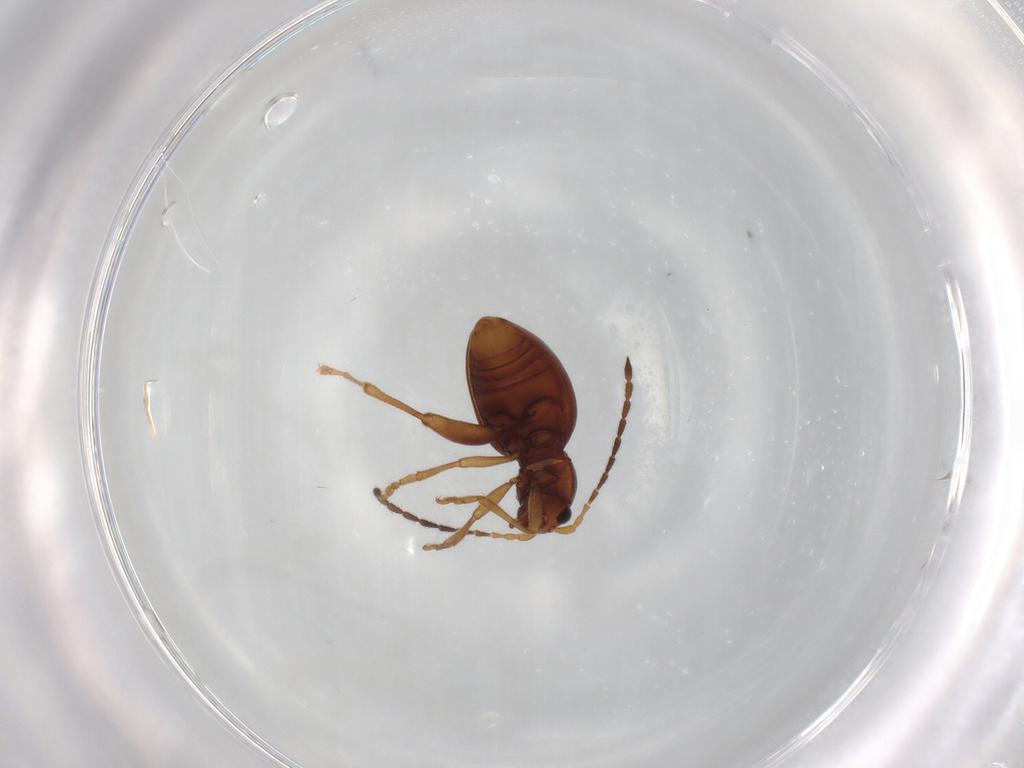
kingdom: Animalia
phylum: Arthropoda
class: Insecta
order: Coleoptera
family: Chrysomelidae
